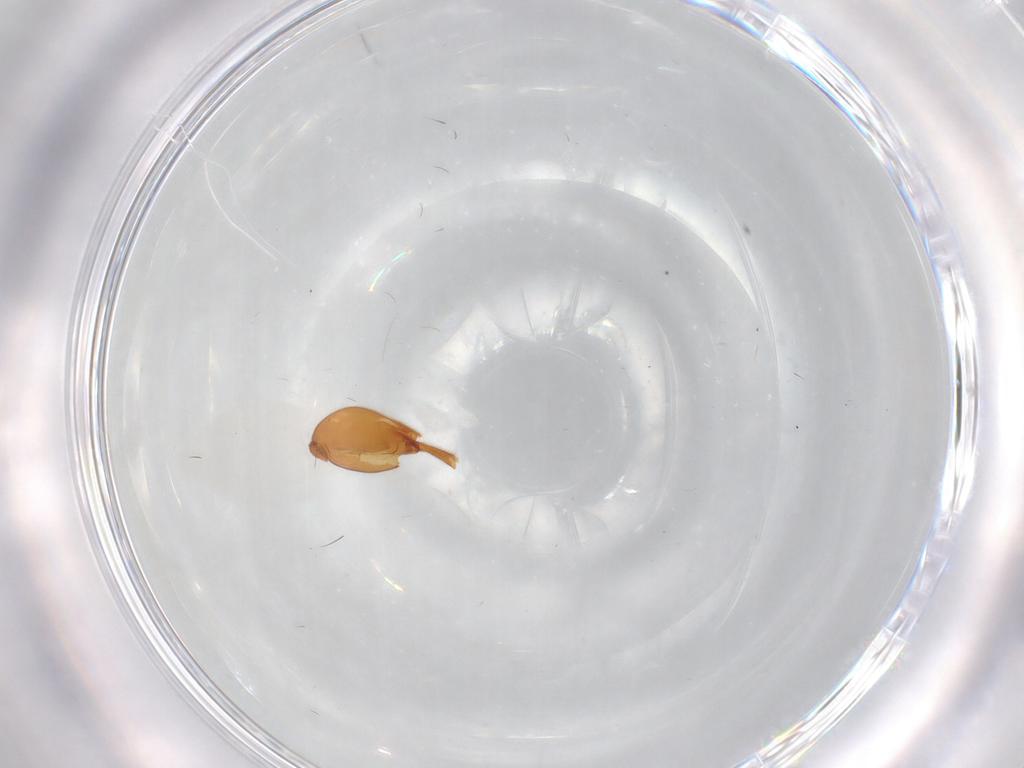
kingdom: Animalia
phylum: Arthropoda
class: Insecta
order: Coleoptera
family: Scirtidae
